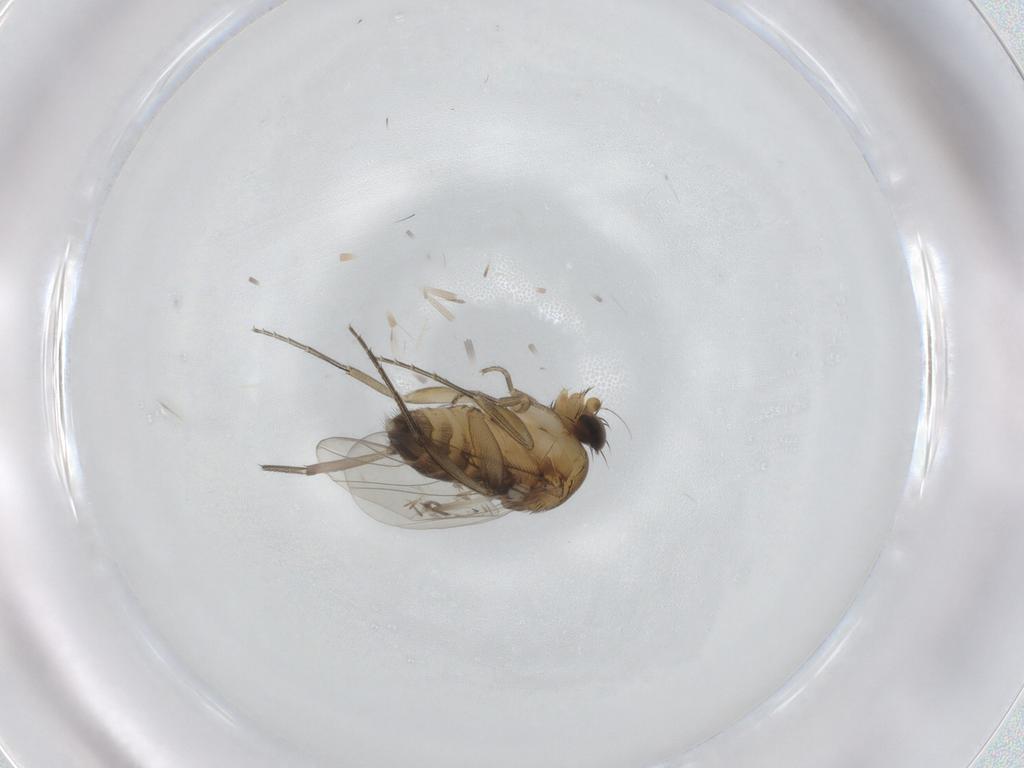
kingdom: Animalia
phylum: Arthropoda
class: Insecta
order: Diptera
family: Phoridae
